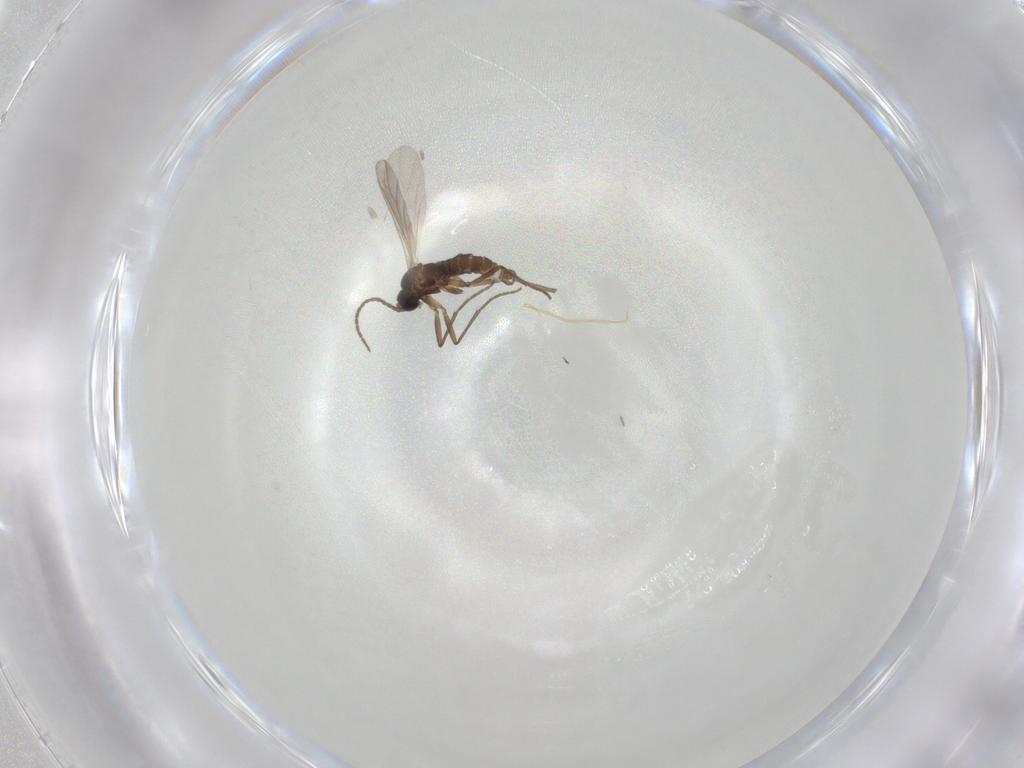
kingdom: Animalia
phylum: Arthropoda
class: Insecta
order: Diptera
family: Sciaridae
